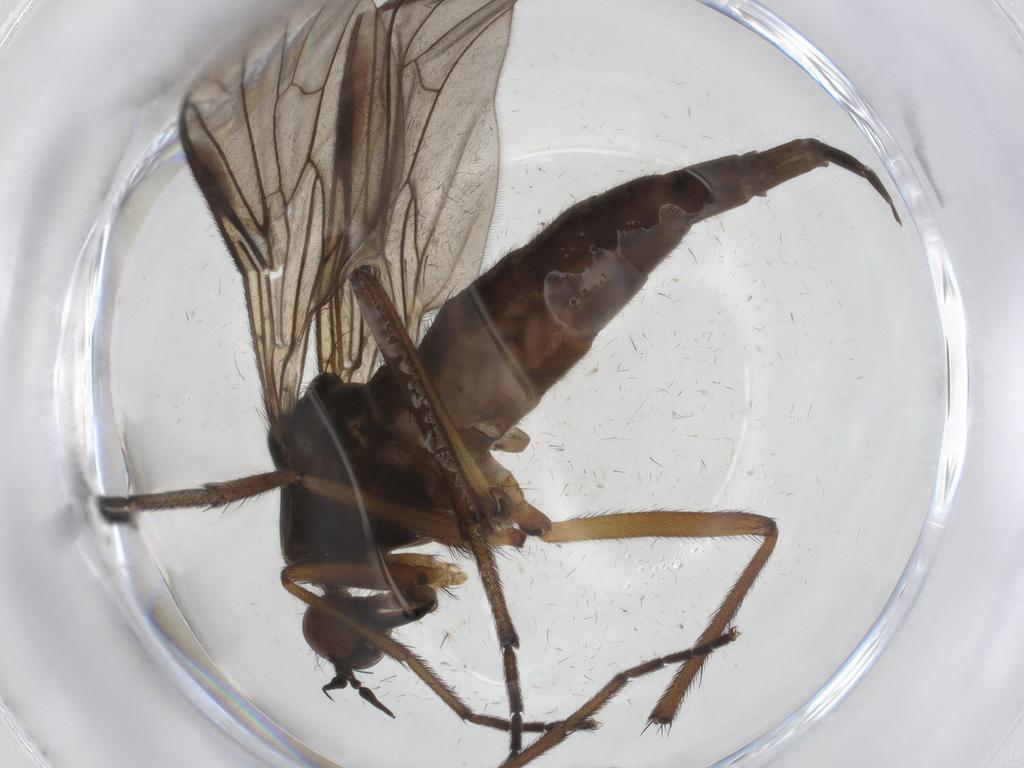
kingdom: Animalia
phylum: Arthropoda
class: Insecta
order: Diptera
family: Empididae
